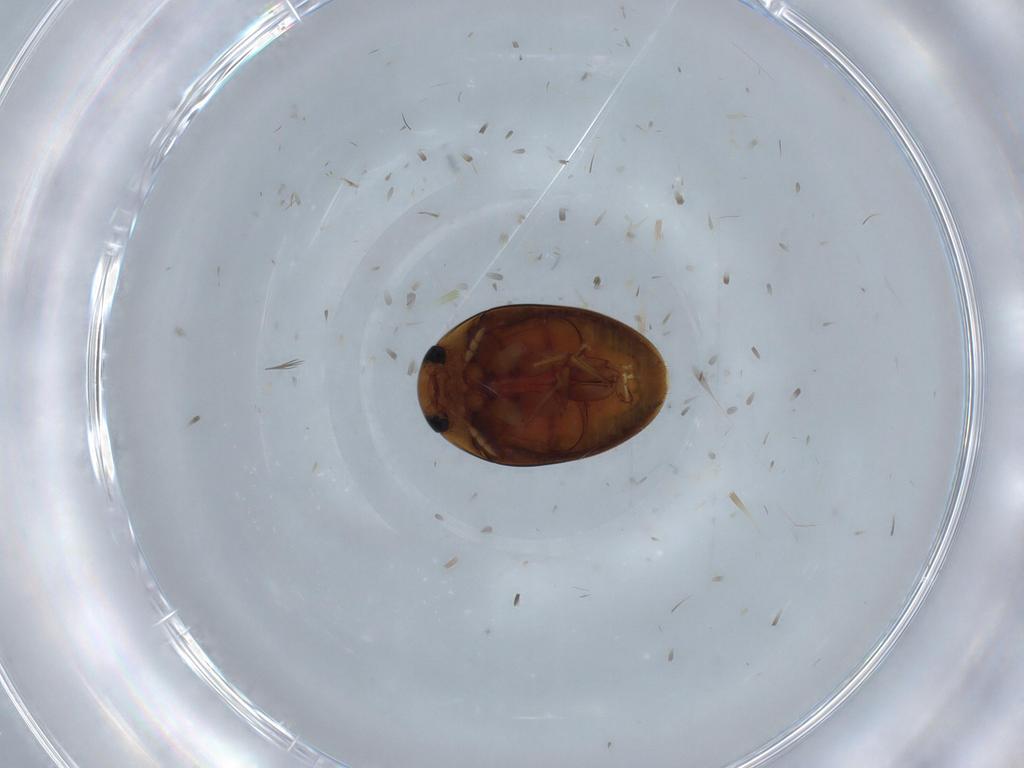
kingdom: Animalia
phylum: Arthropoda
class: Insecta
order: Coleoptera
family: Phalacridae
